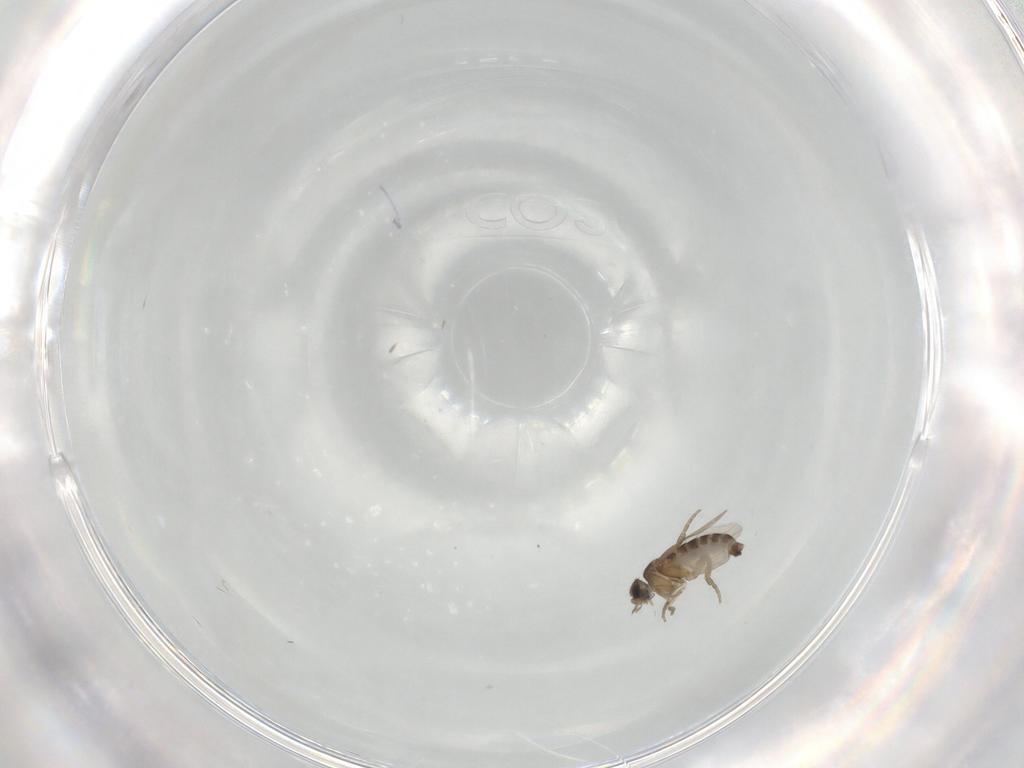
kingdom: Animalia
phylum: Arthropoda
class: Insecta
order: Diptera
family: Phoridae
